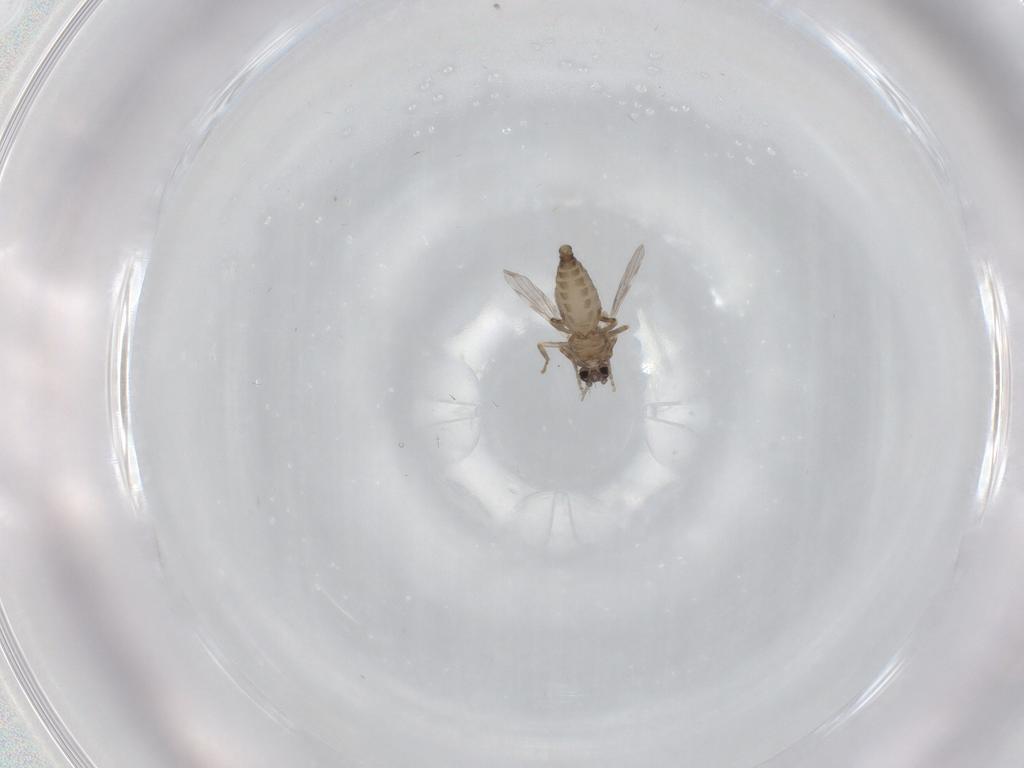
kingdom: Animalia
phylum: Arthropoda
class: Insecta
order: Diptera
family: Ceratopogonidae
